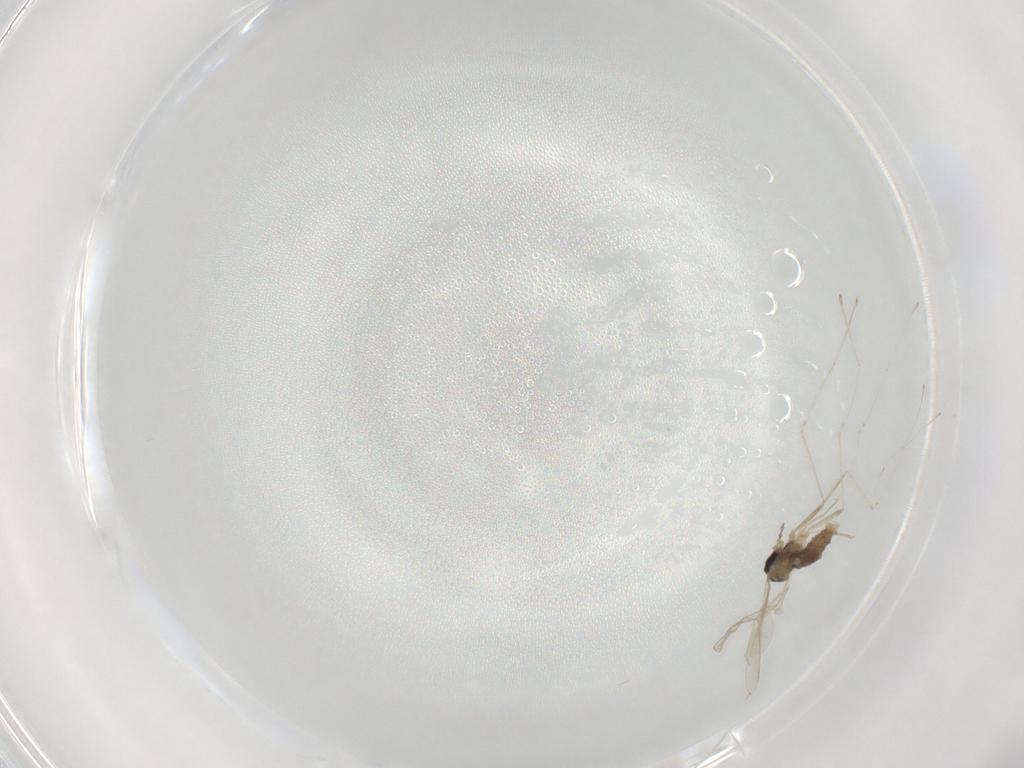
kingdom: Animalia
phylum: Arthropoda
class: Insecta
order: Diptera
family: Cecidomyiidae
